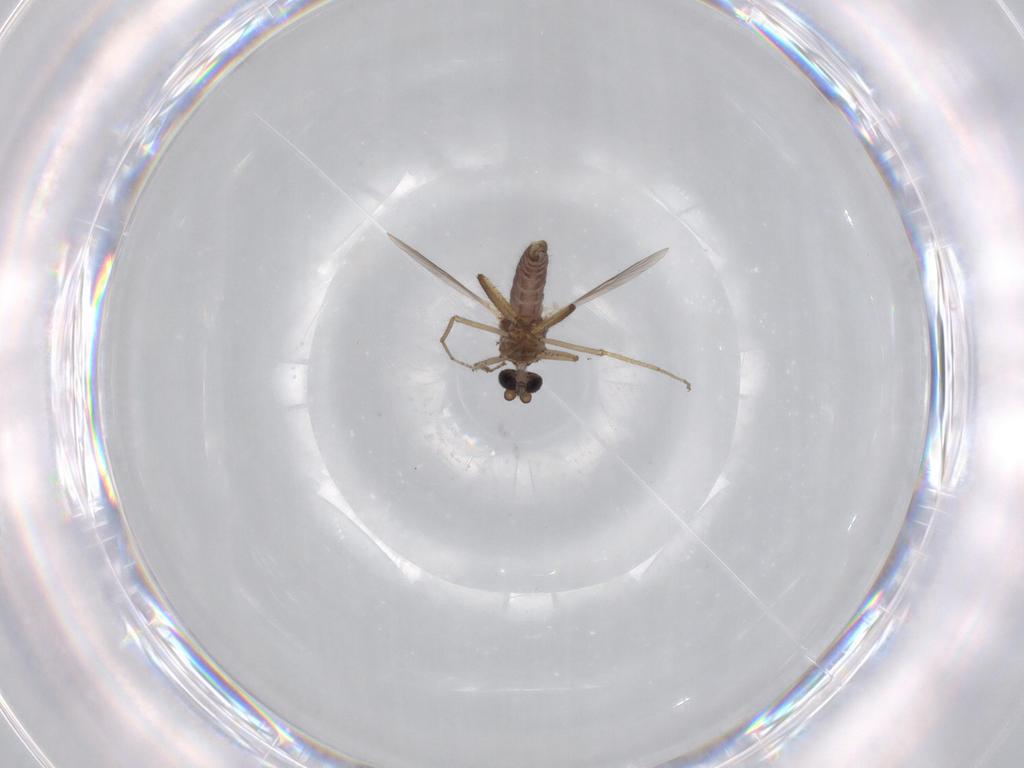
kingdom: Animalia
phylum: Arthropoda
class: Insecta
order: Diptera
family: Ceratopogonidae
